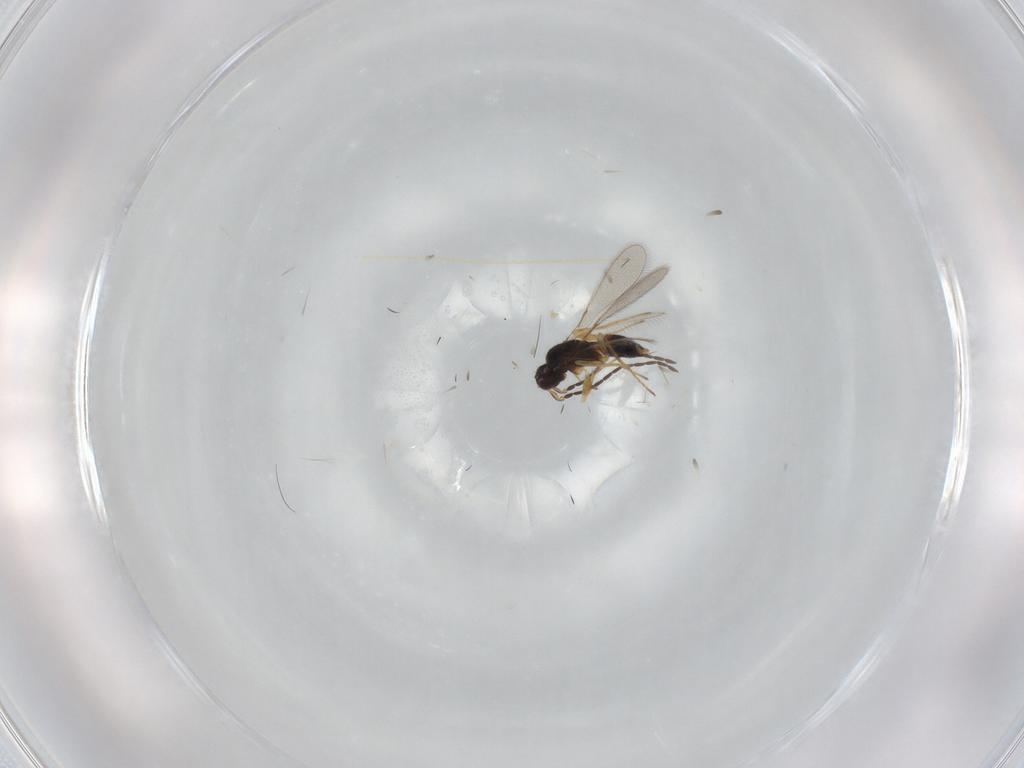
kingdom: Animalia
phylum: Arthropoda
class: Insecta
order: Hymenoptera
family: Mymaridae
